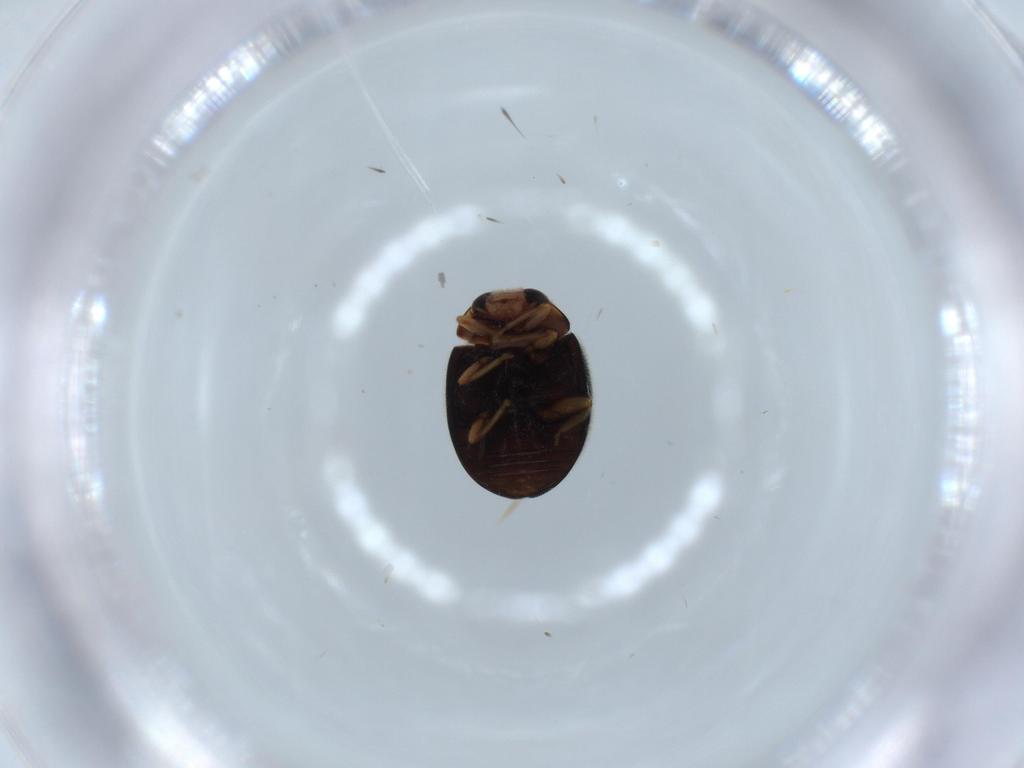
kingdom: Animalia
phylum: Arthropoda
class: Insecta
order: Coleoptera
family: Coccinellidae
